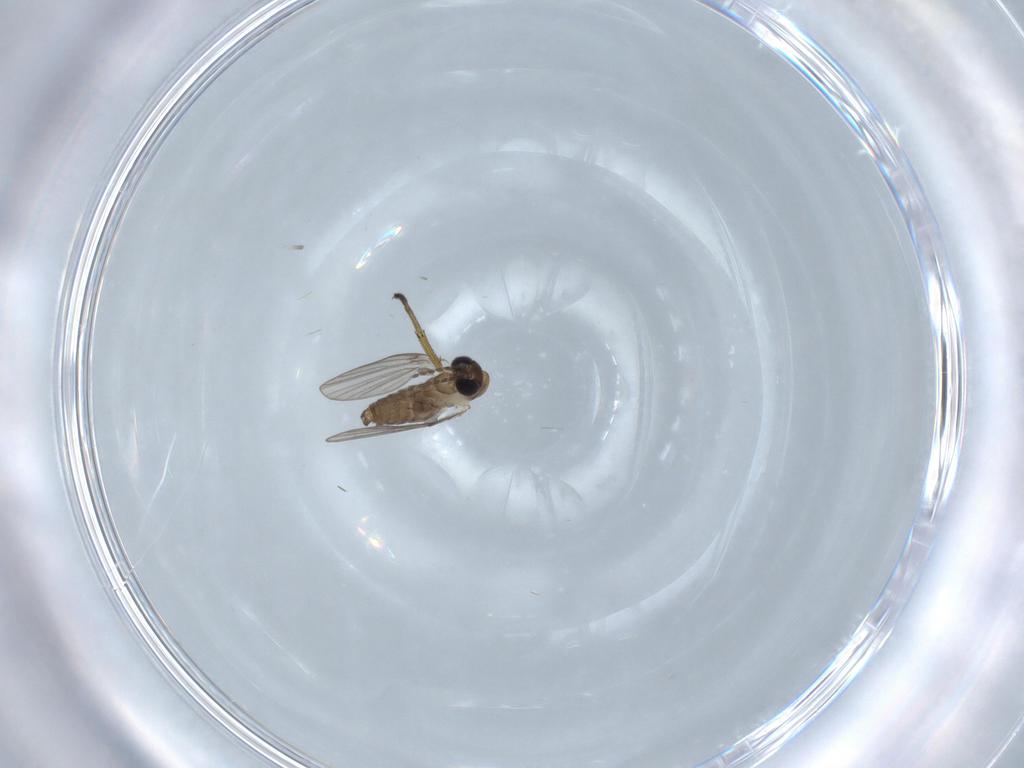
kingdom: Animalia
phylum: Arthropoda
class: Insecta
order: Diptera
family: Dolichopodidae
